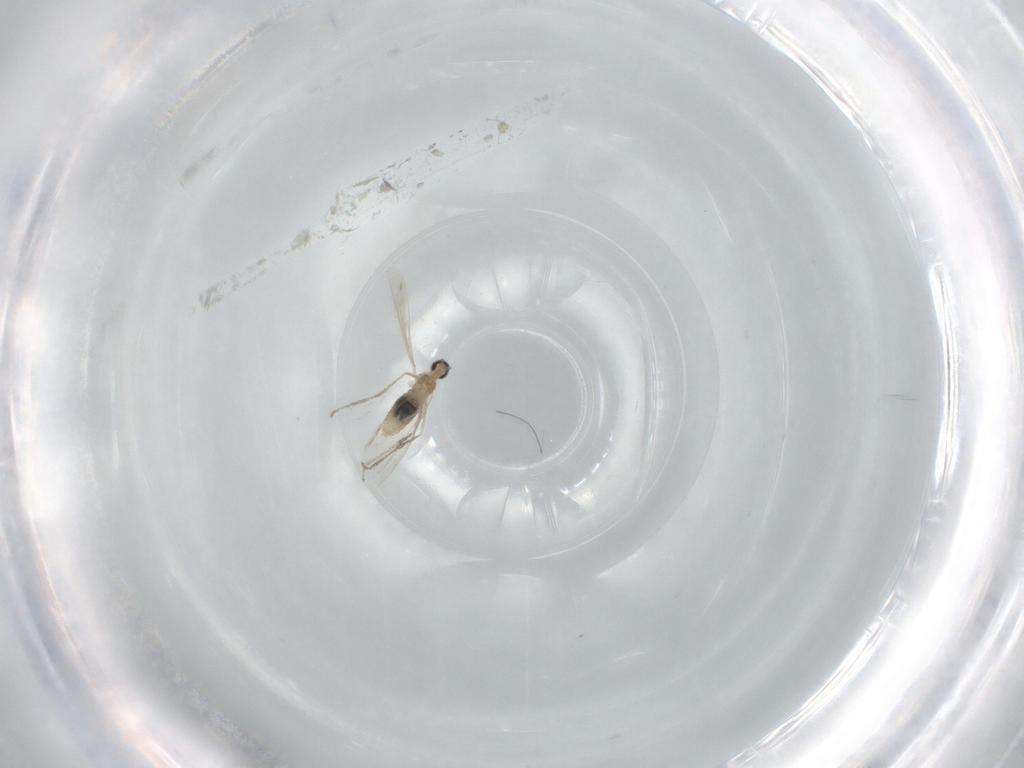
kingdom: Animalia
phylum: Arthropoda
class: Insecta
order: Diptera
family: Cecidomyiidae
